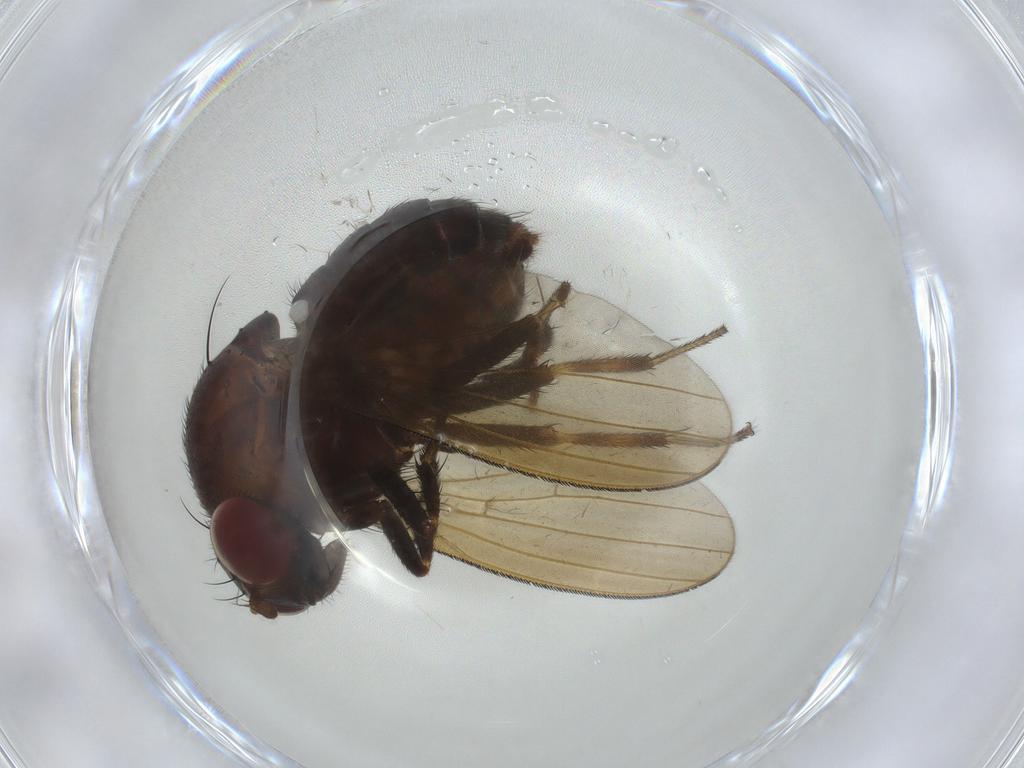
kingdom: Animalia
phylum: Arthropoda
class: Insecta
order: Diptera
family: Lauxaniidae
